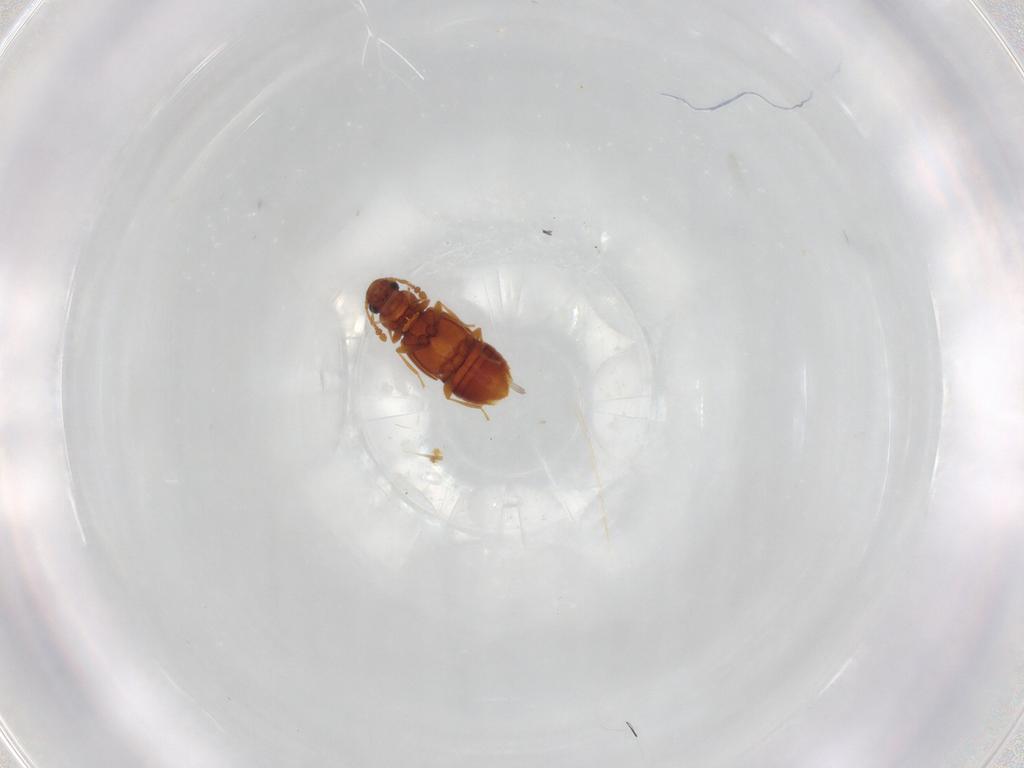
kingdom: Animalia
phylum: Arthropoda
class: Insecta
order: Coleoptera
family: Staphylinidae
